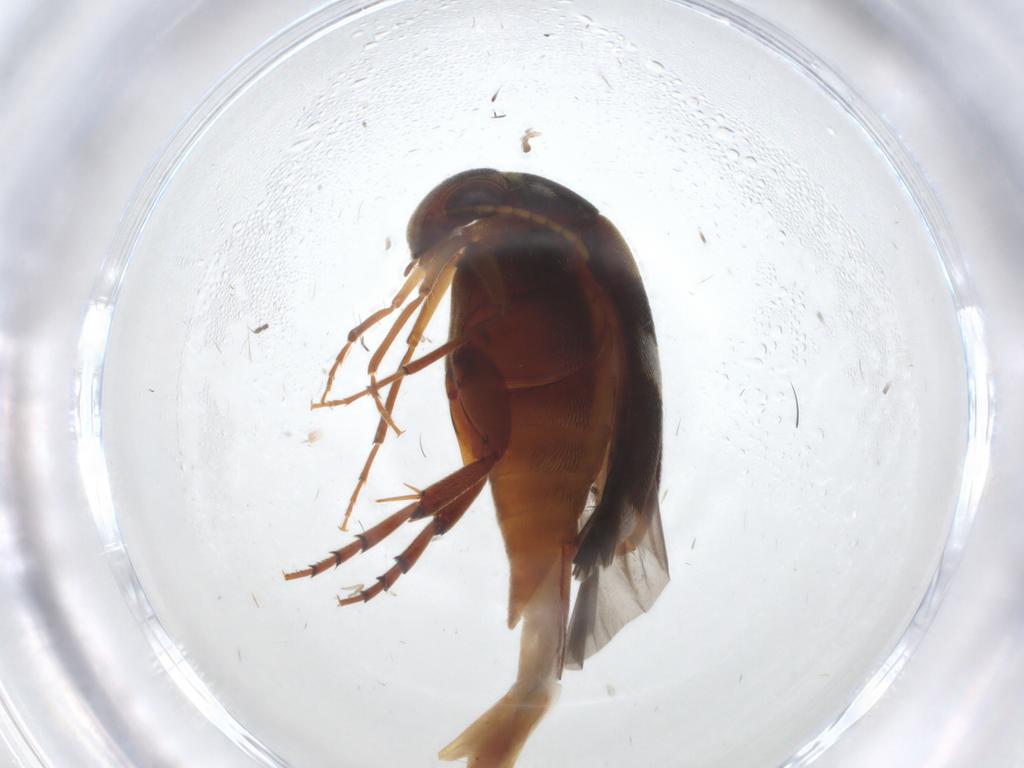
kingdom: Animalia
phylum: Arthropoda
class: Insecta
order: Coleoptera
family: Mordellidae
